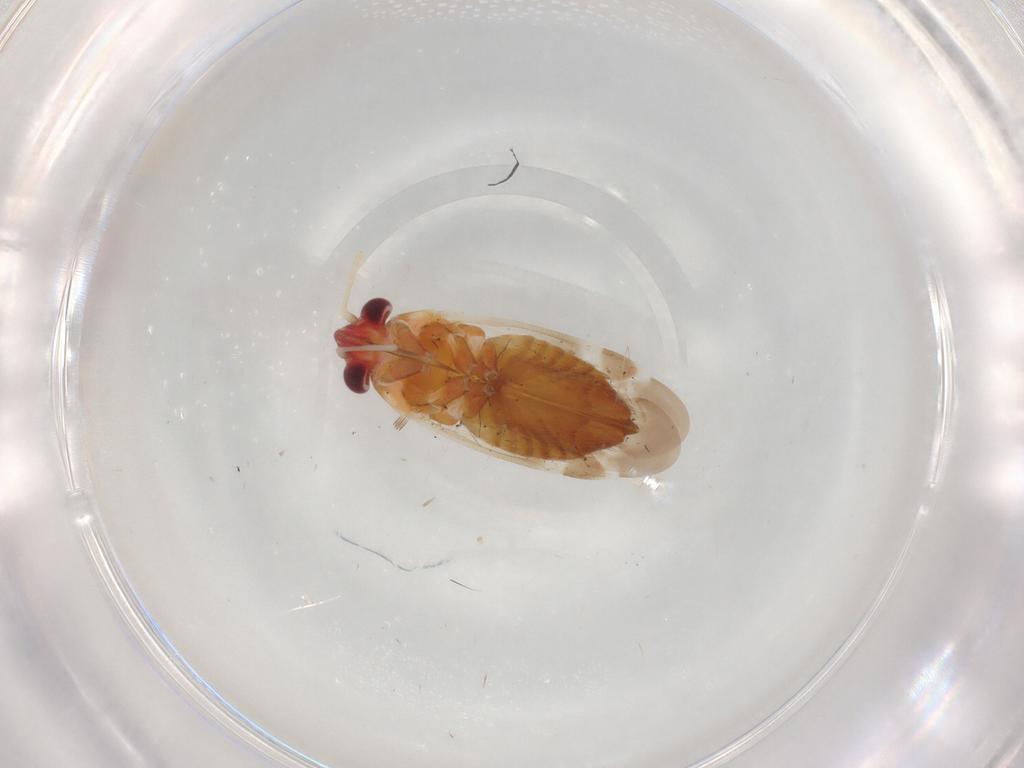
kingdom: Animalia
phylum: Arthropoda
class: Insecta
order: Hemiptera
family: Miridae
